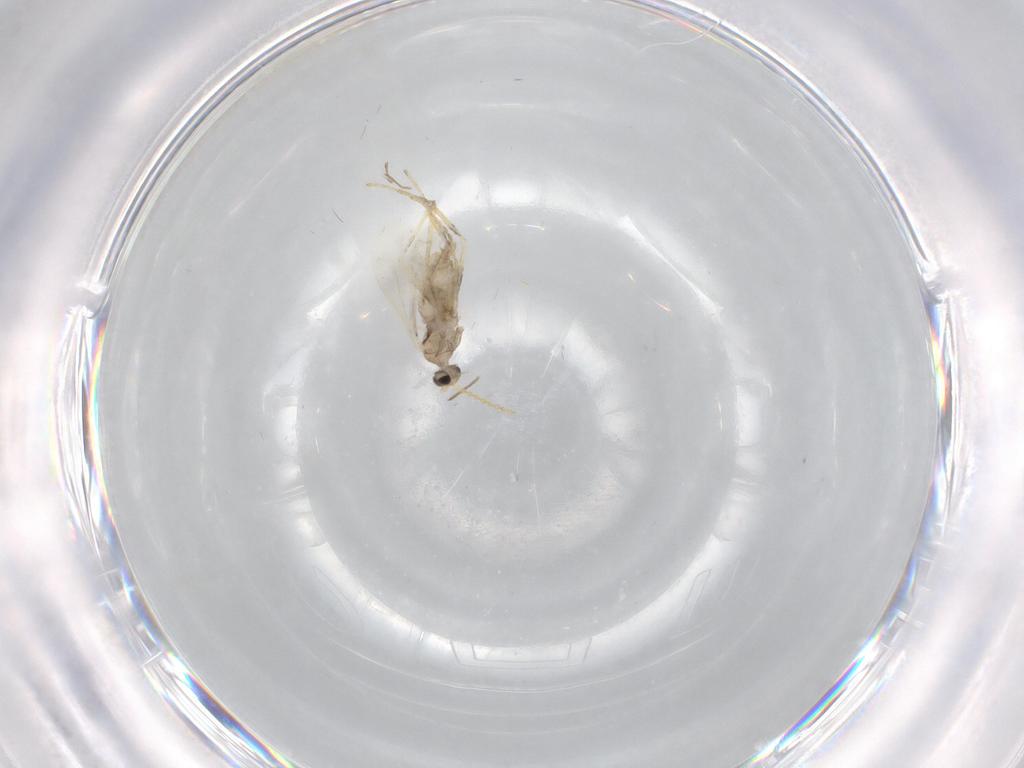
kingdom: Animalia
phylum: Arthropoda
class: Insecta
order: Diptera
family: Cecidomyiidae
